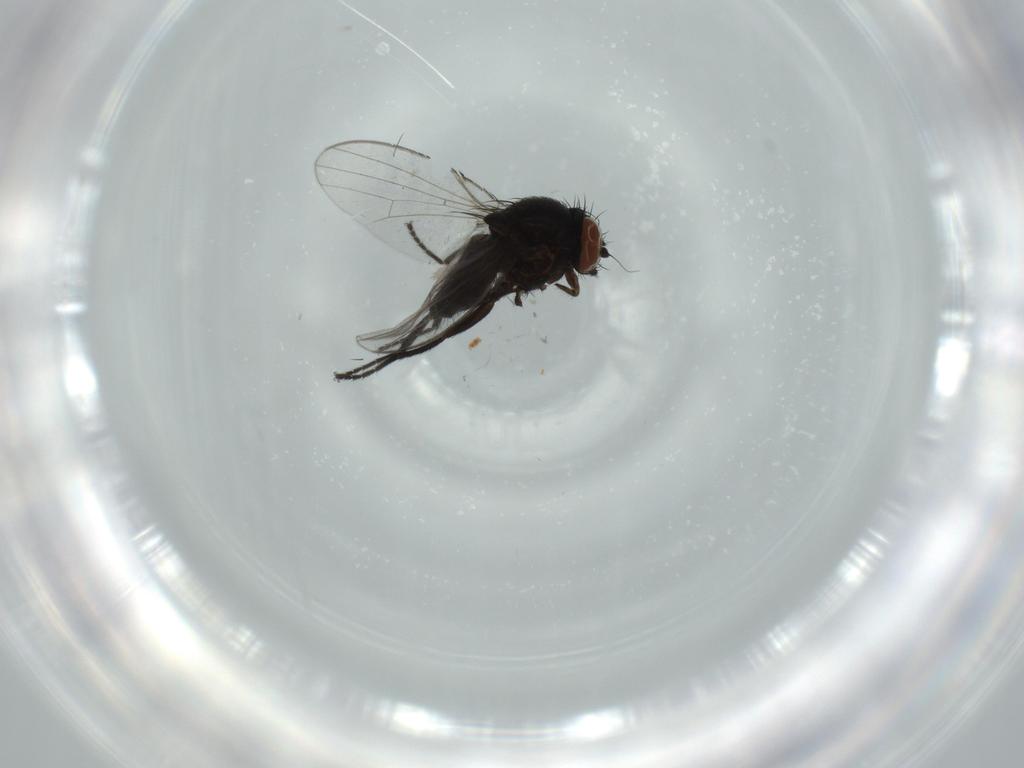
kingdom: Animalia
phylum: Arthropoda
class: Insecta
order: Diptera
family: Milichiidae
